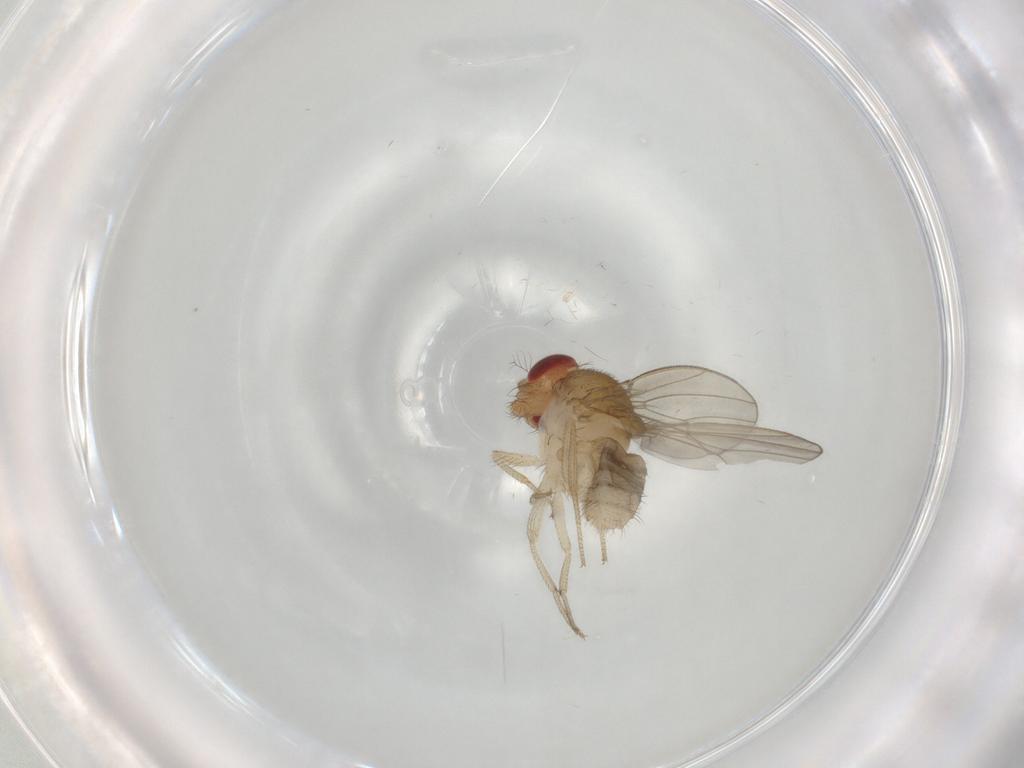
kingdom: Animalia
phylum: Arthropoda
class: Insecta
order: Diptera
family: Drosophilidae
